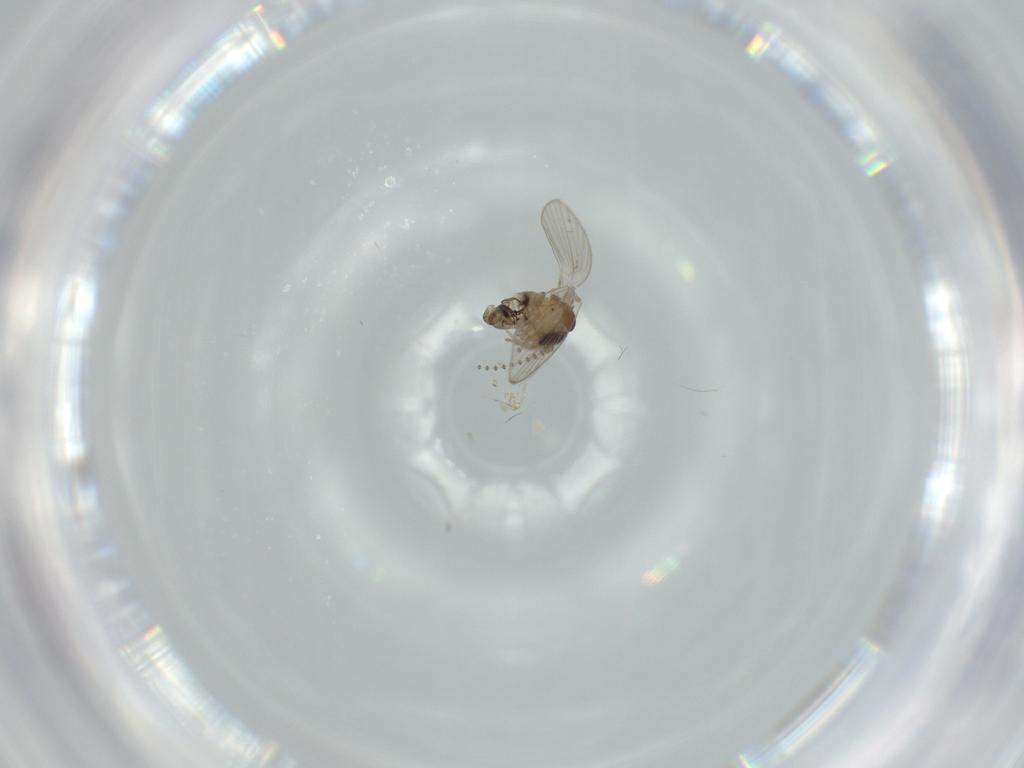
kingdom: Animalia
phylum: Arthropoda
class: Insecta
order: Diptera
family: Psychodidae
